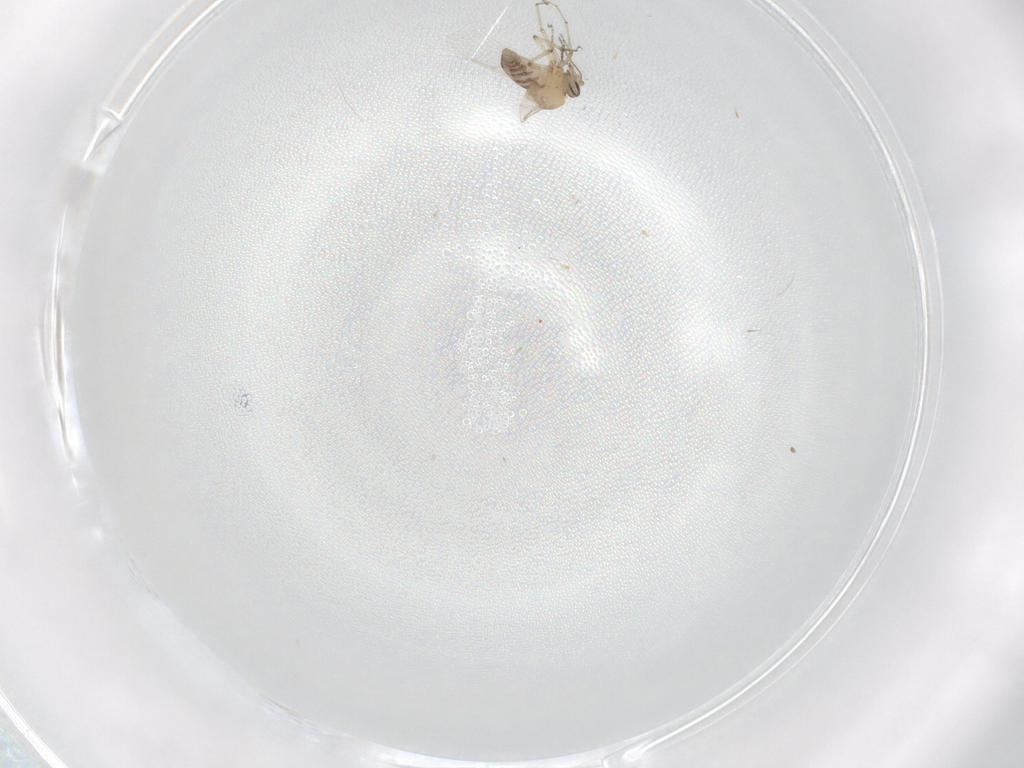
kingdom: Animalia
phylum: Arthropoda
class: Insecta
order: Diptera
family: Ceratopogonidae
